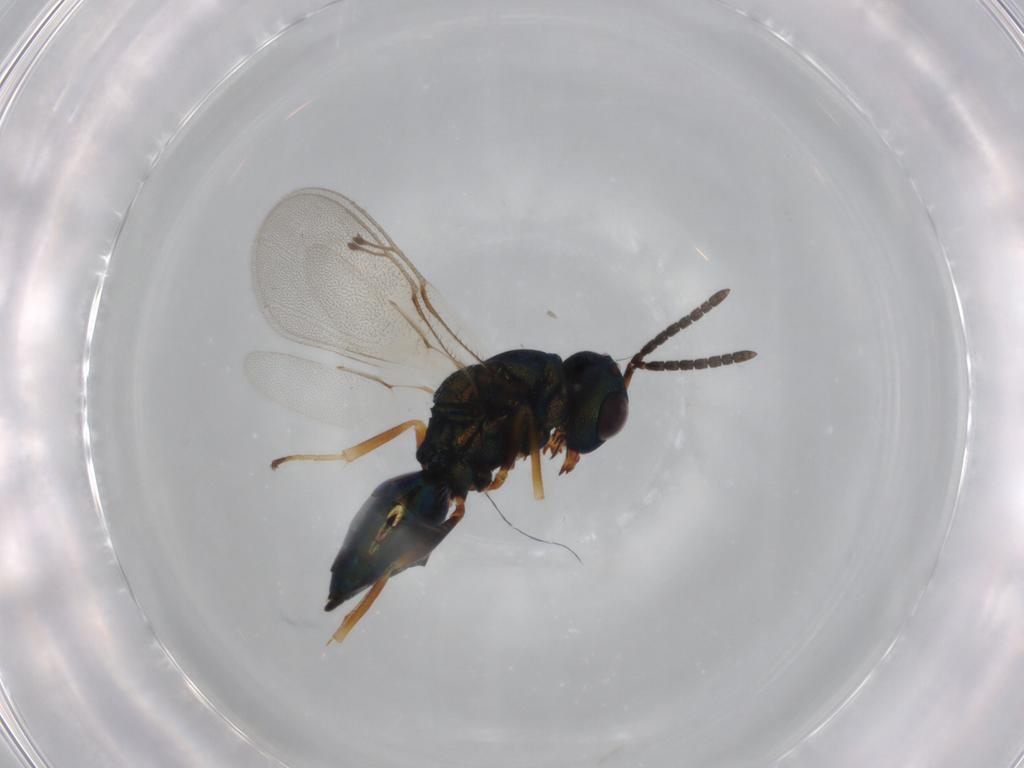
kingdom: Animalia
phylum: Arthropoda
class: Insecta
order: Hymenoptera
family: Pteromalidae
